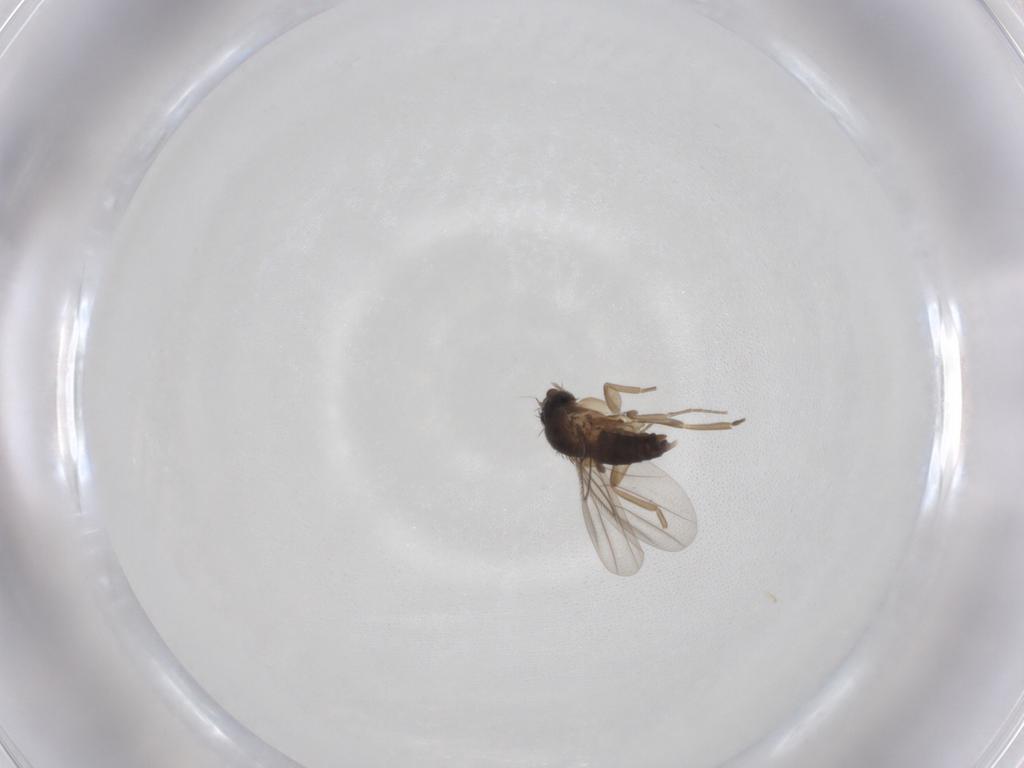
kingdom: Animalia
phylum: Arthropoda
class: Insecta
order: Diptera
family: Phoridae
